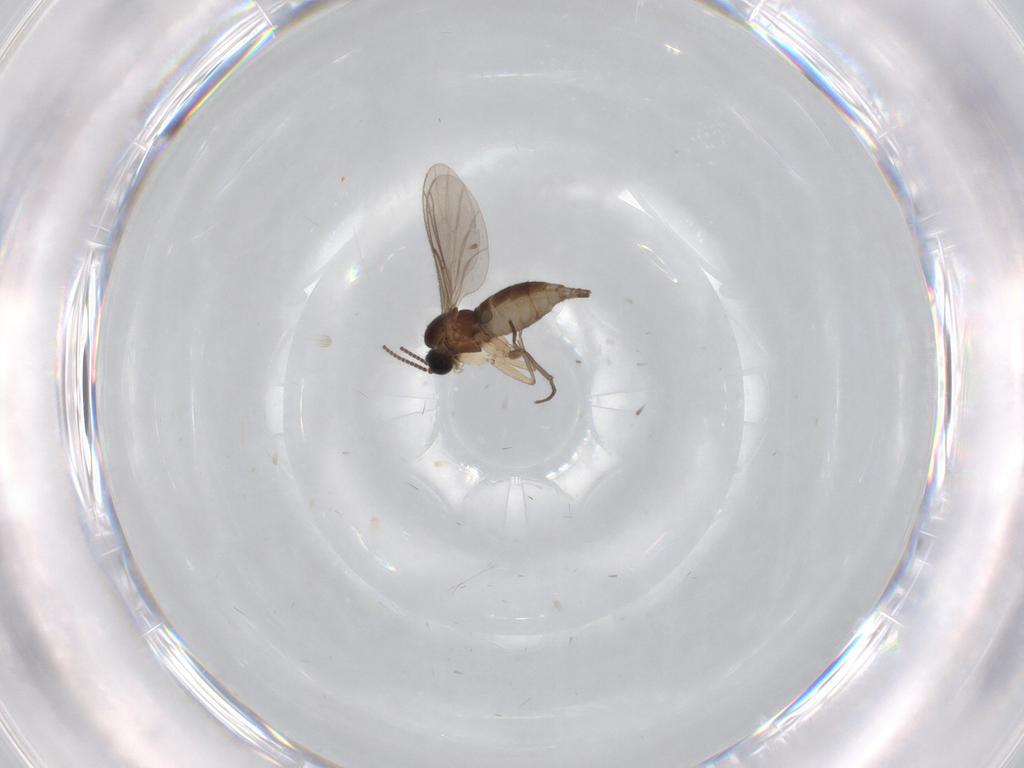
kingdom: Animalia
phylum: Arthropoda
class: Insecta
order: Diptera
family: Sciaridae
